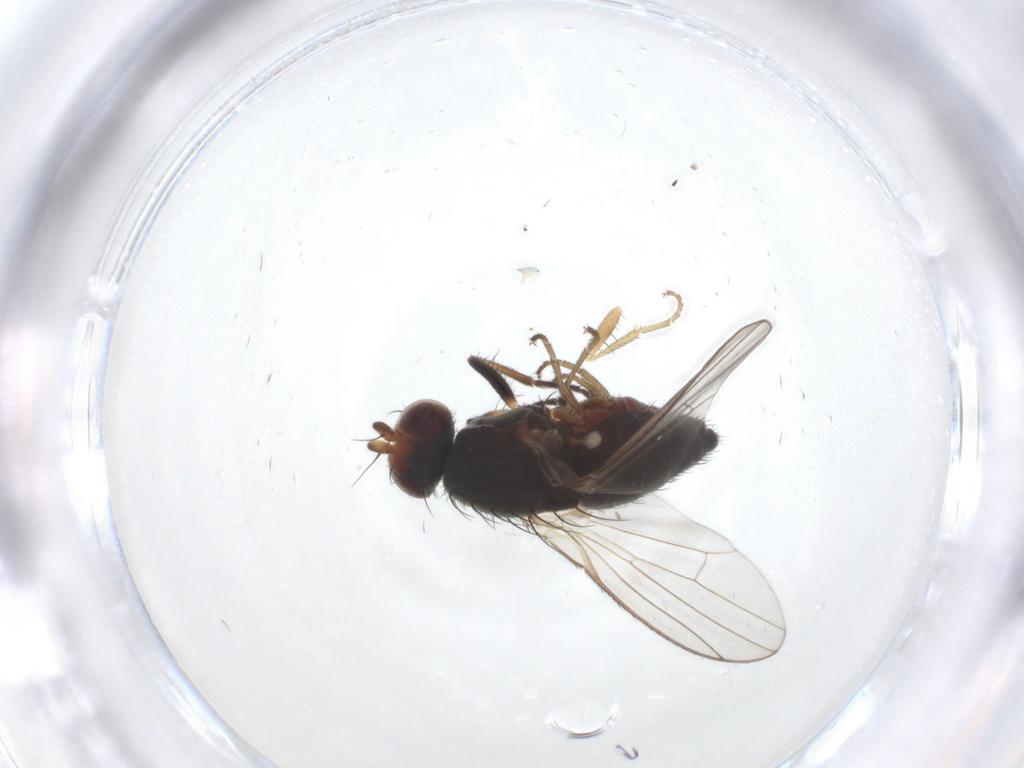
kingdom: Animalia
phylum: Arthropoda
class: Insecta
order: Diptera
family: Heleomyzidae
